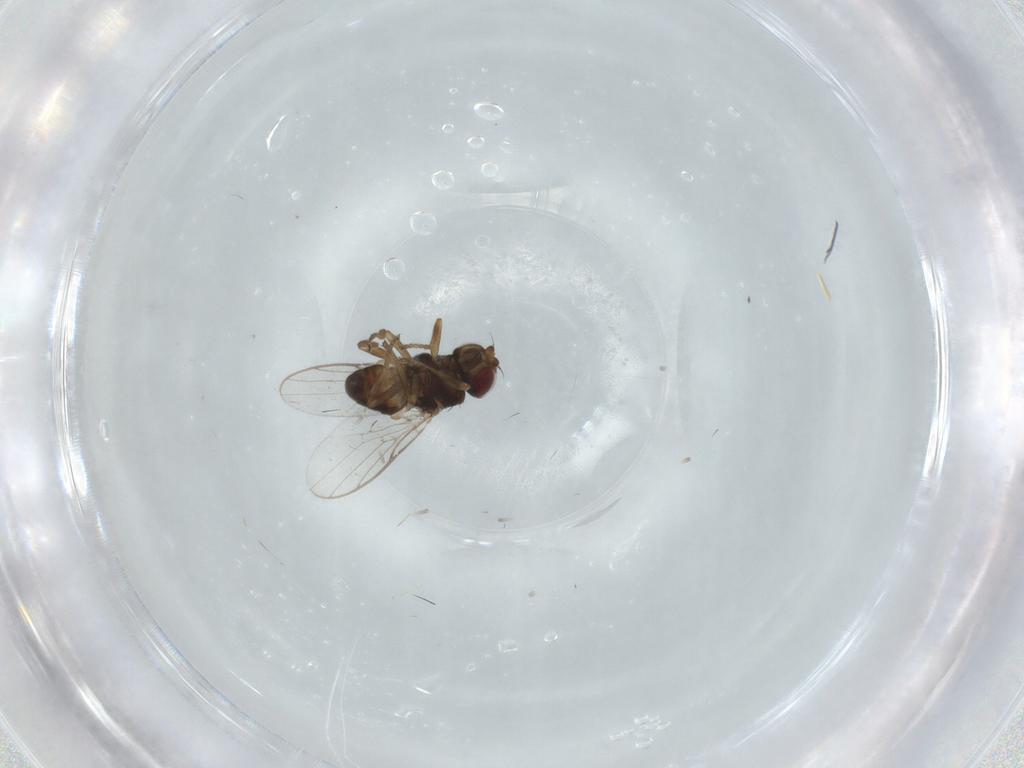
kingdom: Animalia
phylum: Arthropoda
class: Insecta
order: Diptera
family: Chloropidae
